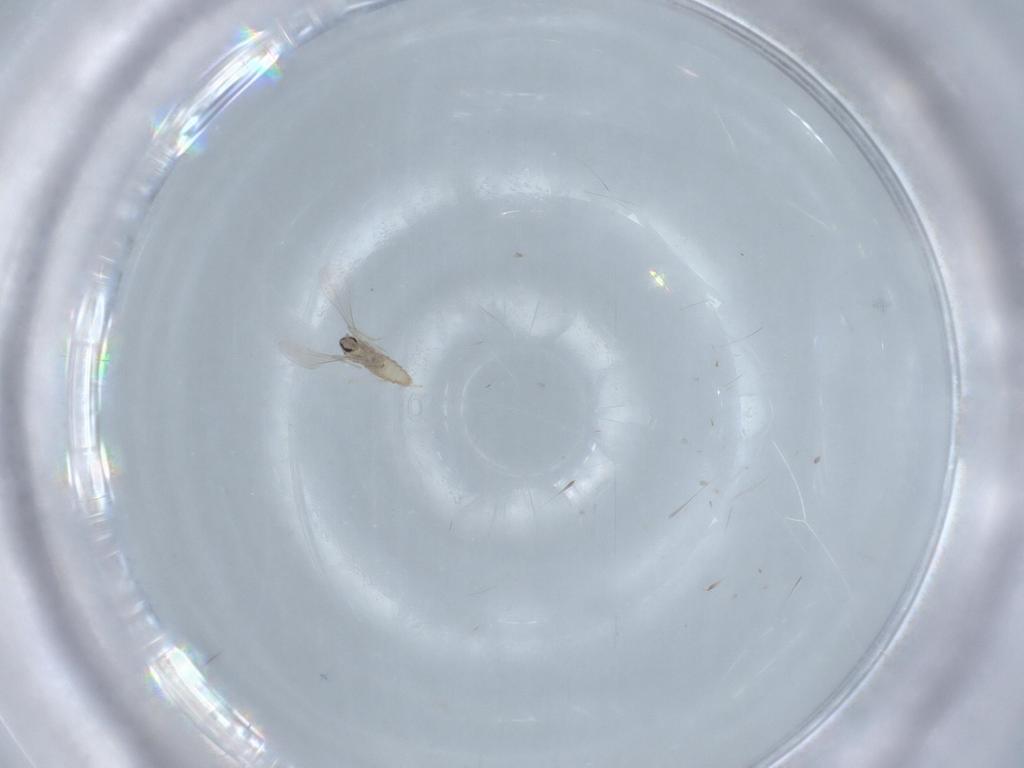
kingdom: Animalia
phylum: Arthropoda
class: Insecta
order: Diptera
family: Cecidomyiidae
